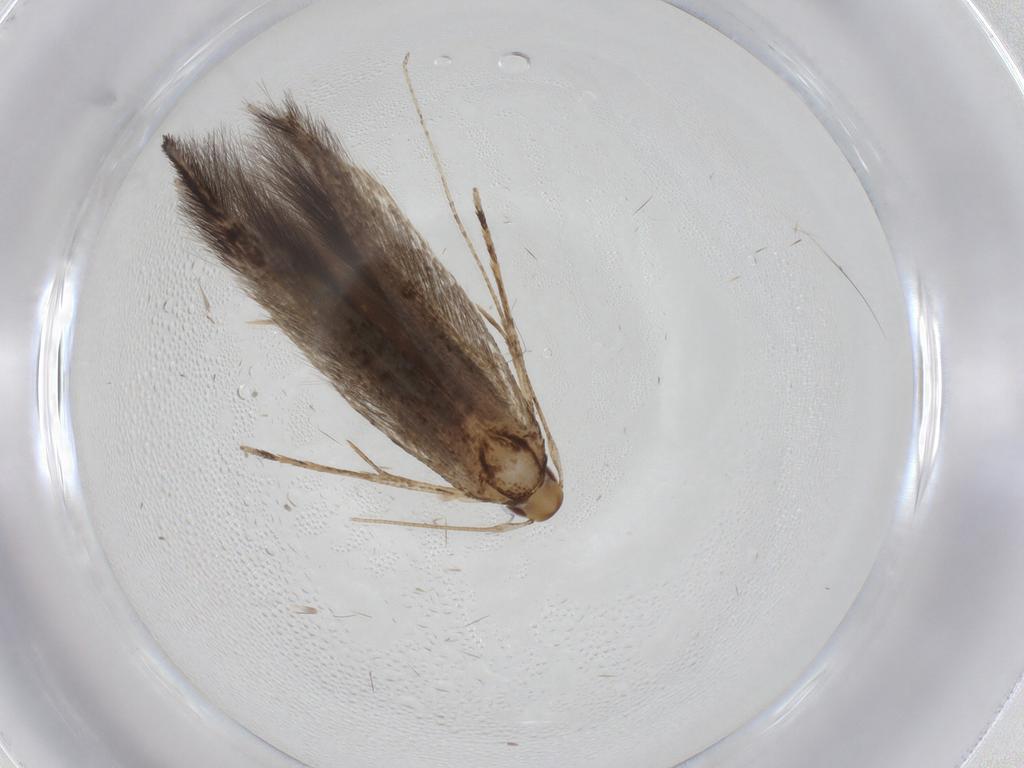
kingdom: Animalia
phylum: Arthropoda
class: Insecta
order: Lepidoptera
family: Cosmopterigidae
